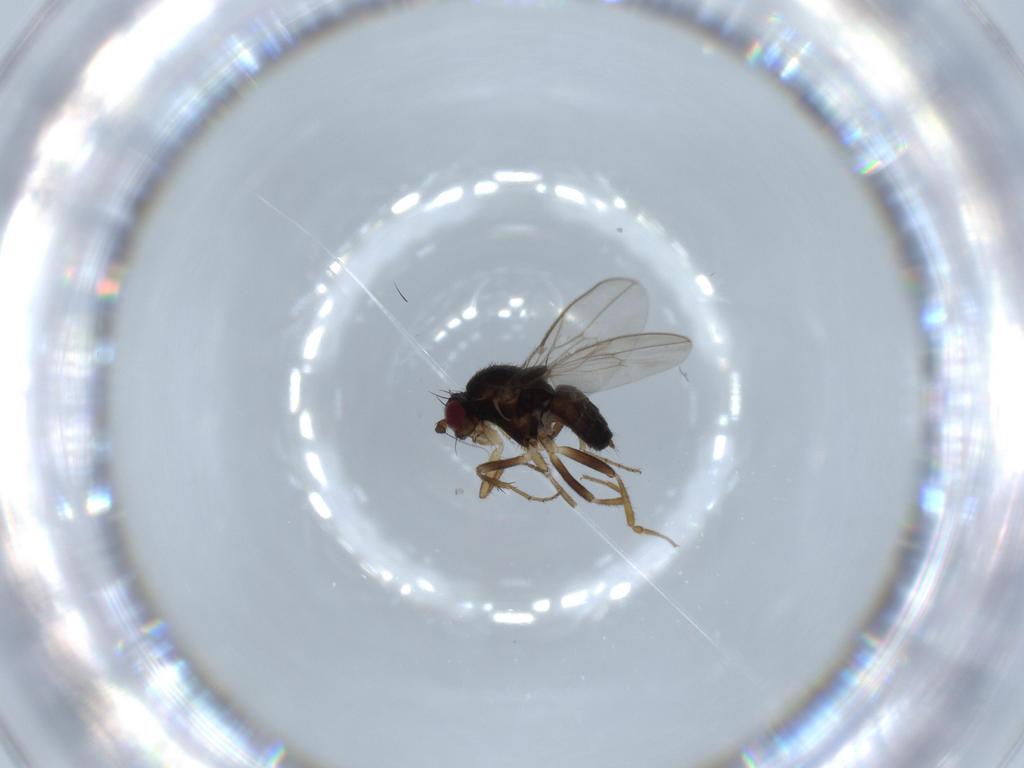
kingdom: Animalia
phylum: Arthropoda
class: Insecta
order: Diptera
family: Sphaeroceridae
